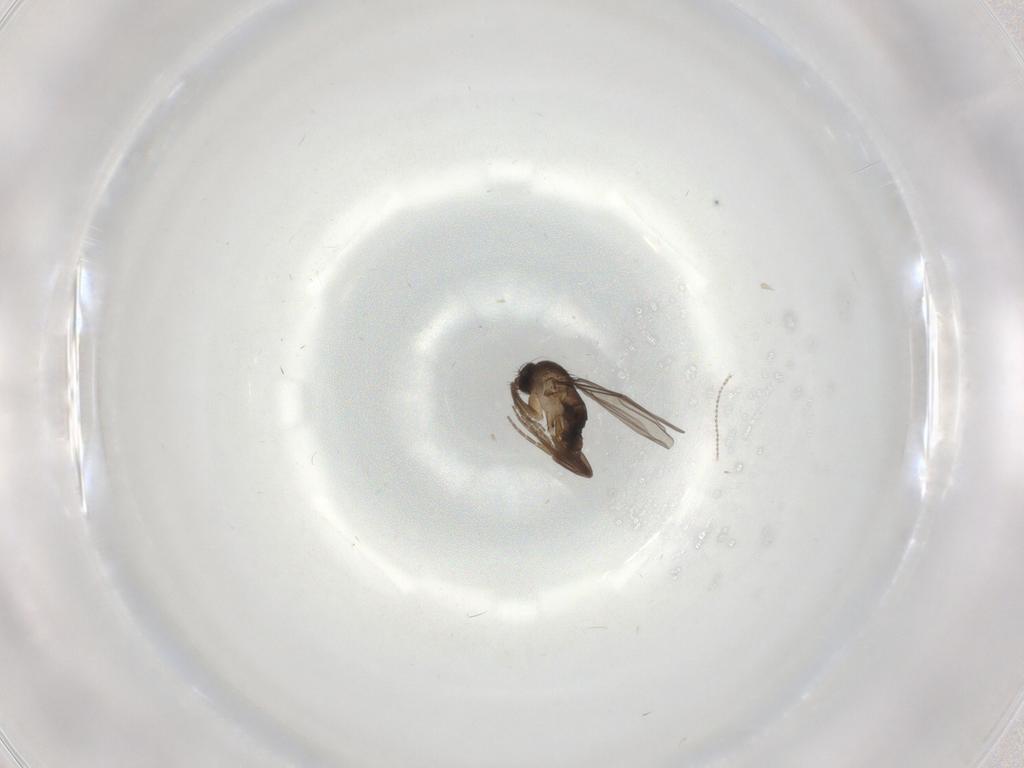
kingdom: Animalia
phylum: Arthropoda
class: Insecta
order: Diptera
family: Cecidomyiidae
